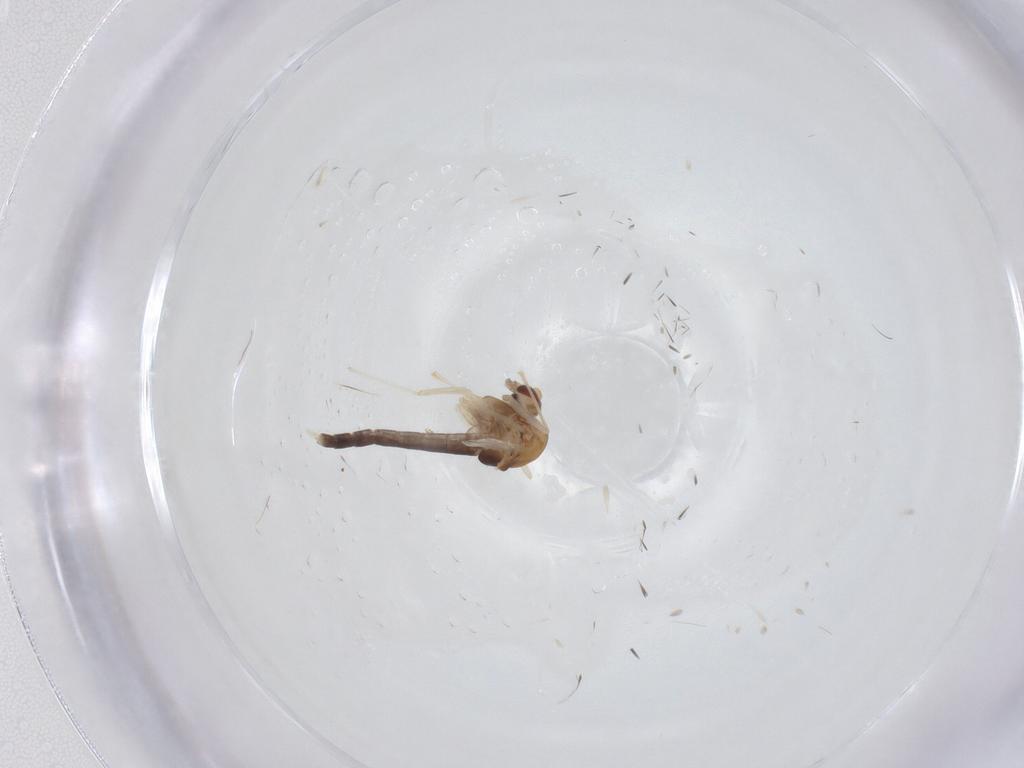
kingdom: Animalia
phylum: Arthropoda
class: Insecta
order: Diptera
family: Chironomidae
